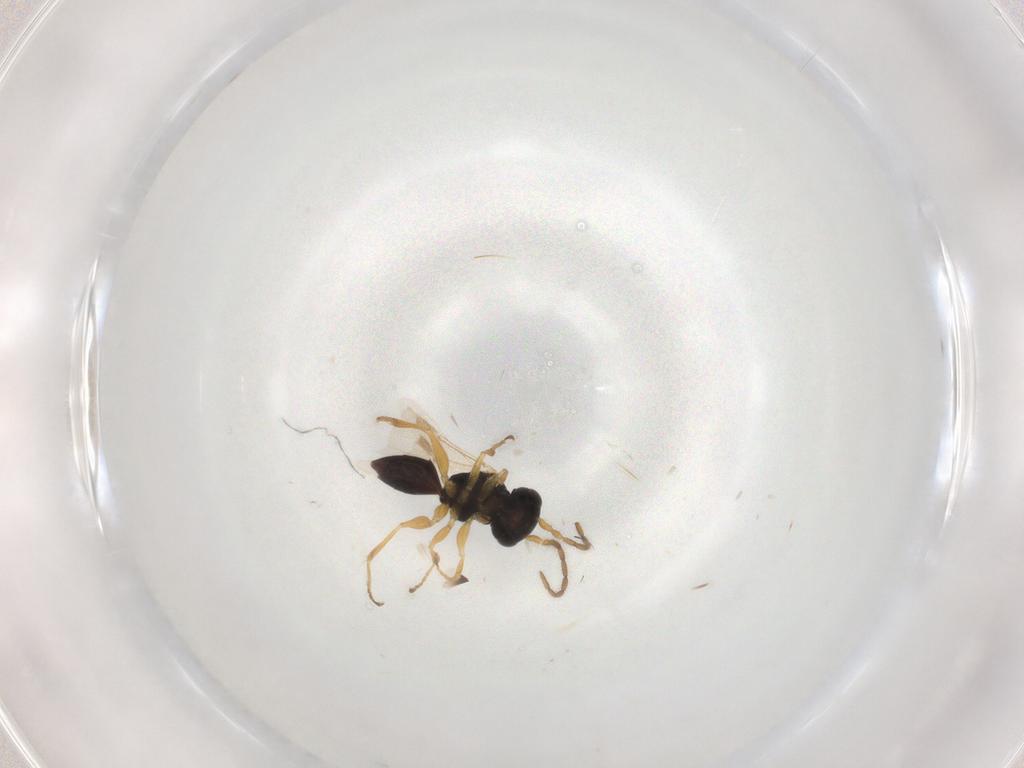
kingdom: Animalia
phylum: Arthropoda
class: Insecta
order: Hymenoptera
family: Dryinidae
